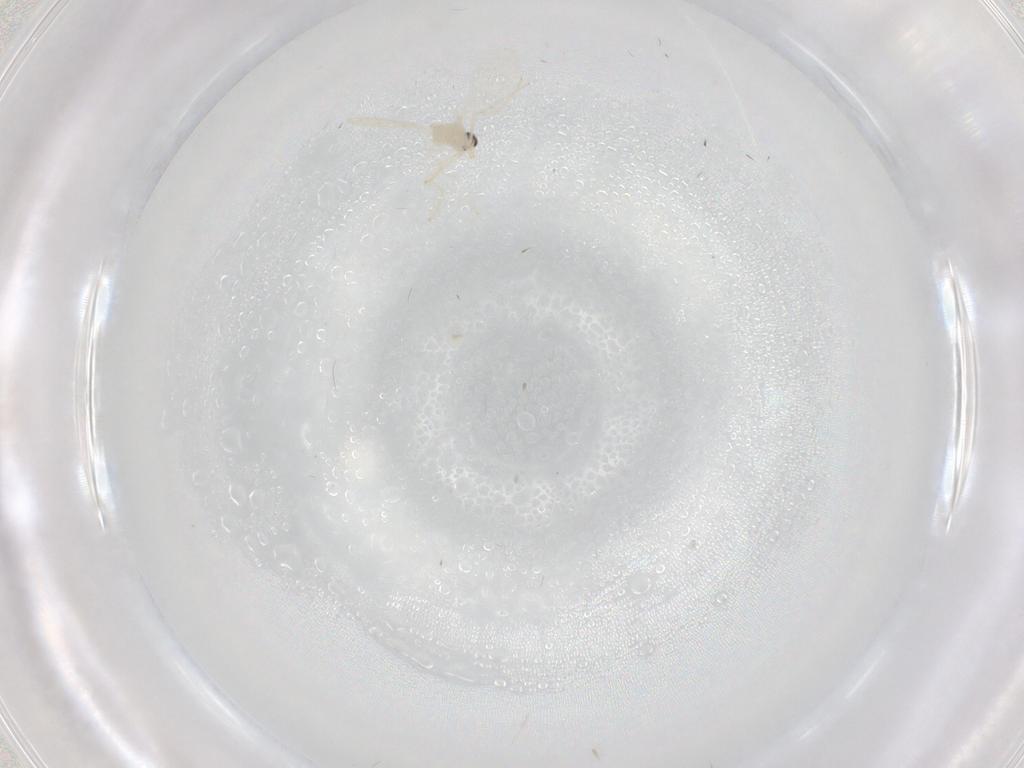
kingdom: Animalia
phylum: Arthropoda
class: Insecta
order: Diptera
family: Cecidomyiidae
